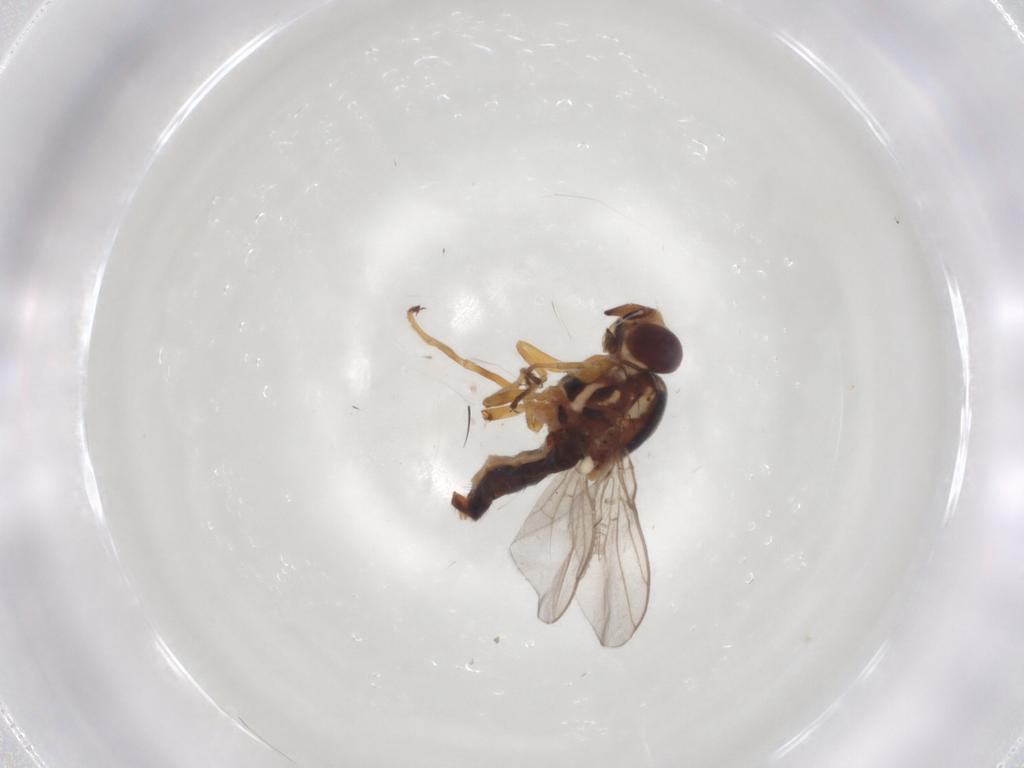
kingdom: Animalia
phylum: Arthropoda
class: Insecta
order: Diptera
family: Chloropidae
